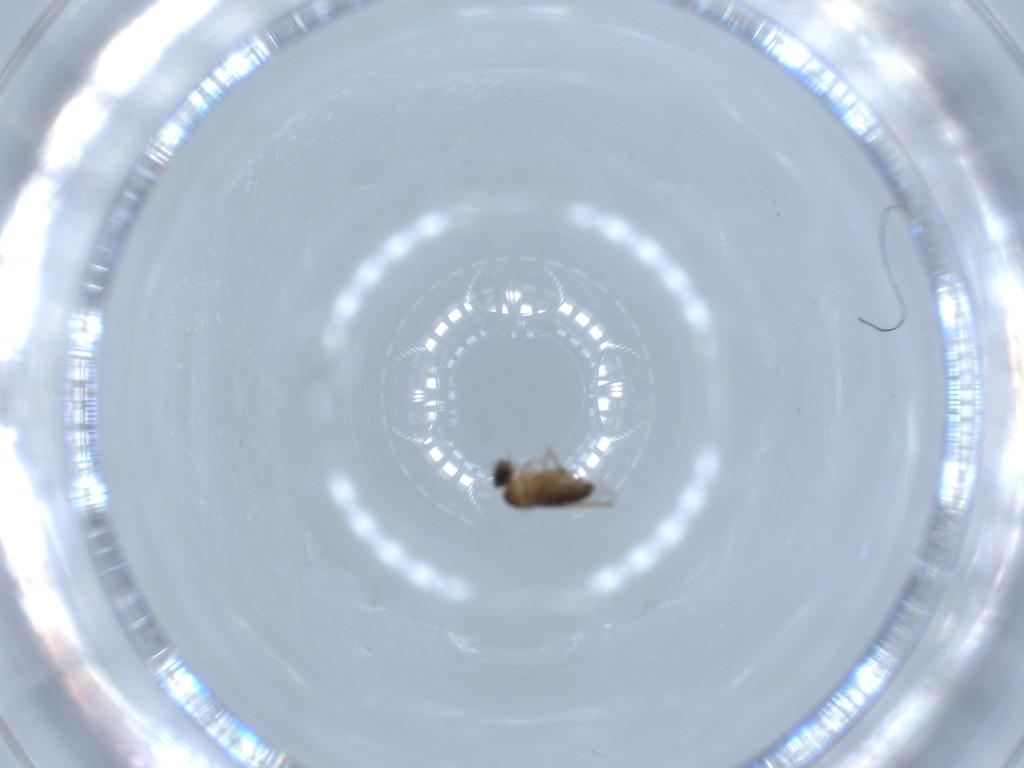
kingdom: Animalia
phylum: Arthropoda
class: Insecta
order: Diptera
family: Phoridae
